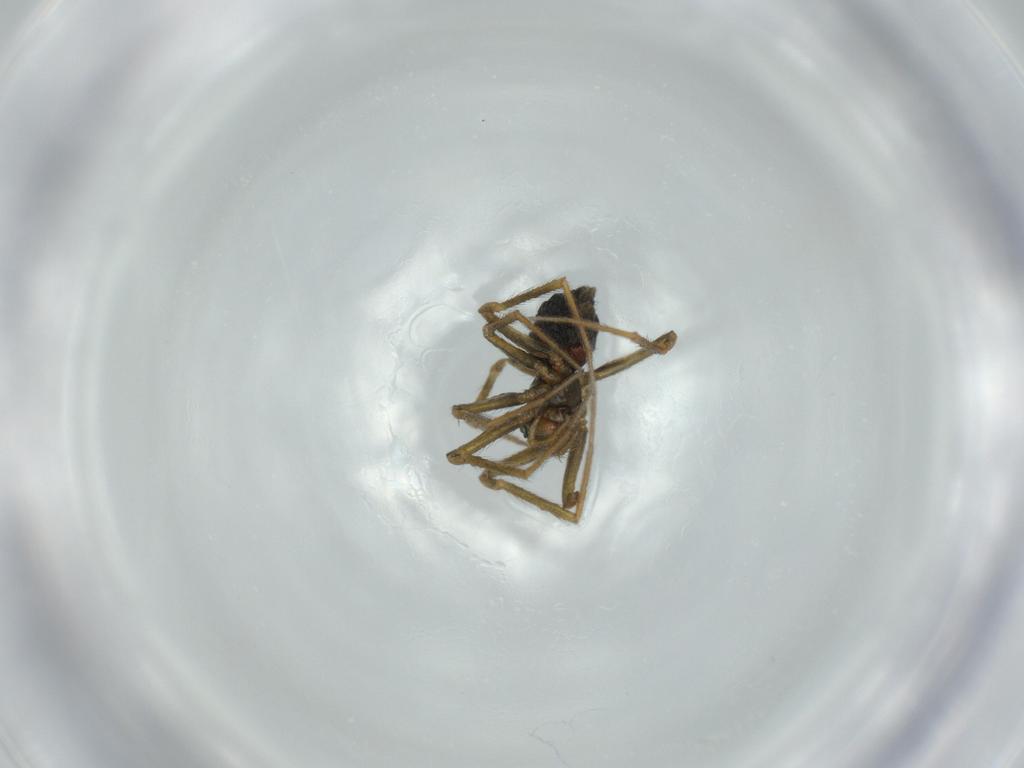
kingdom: Animalia
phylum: Arthropoda
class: Arachnida
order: Araneae
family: Linyphiidae
